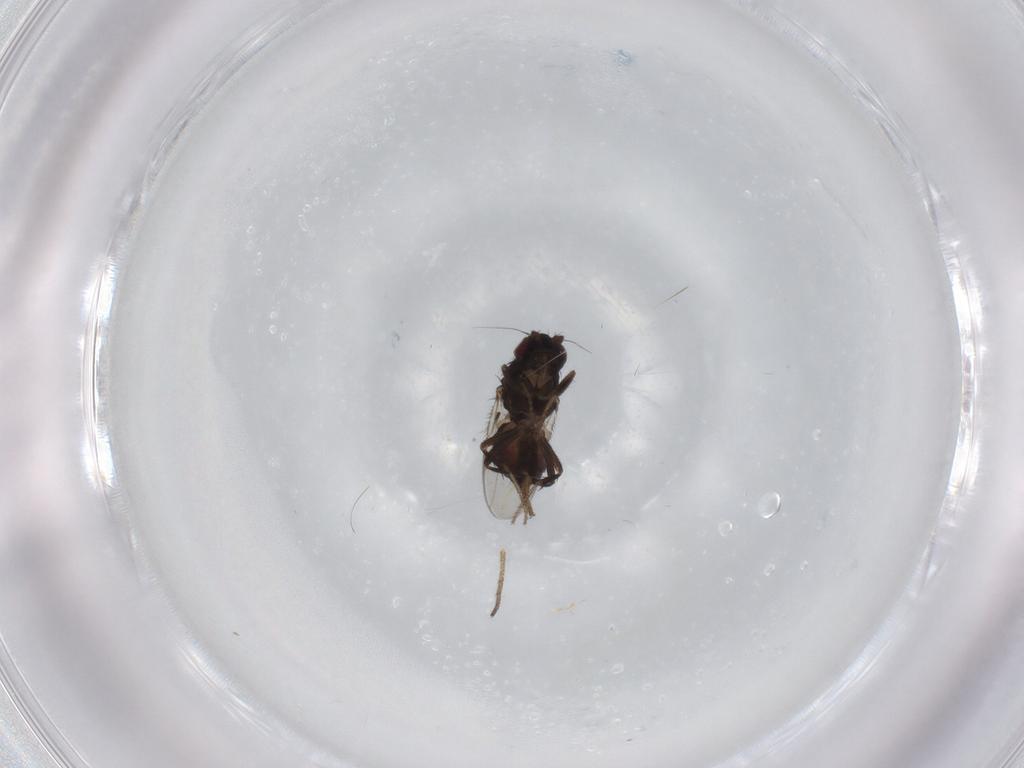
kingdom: Animalia
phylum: Arthropoda
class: Insecta
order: Diptera
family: Sphaeroceridae
